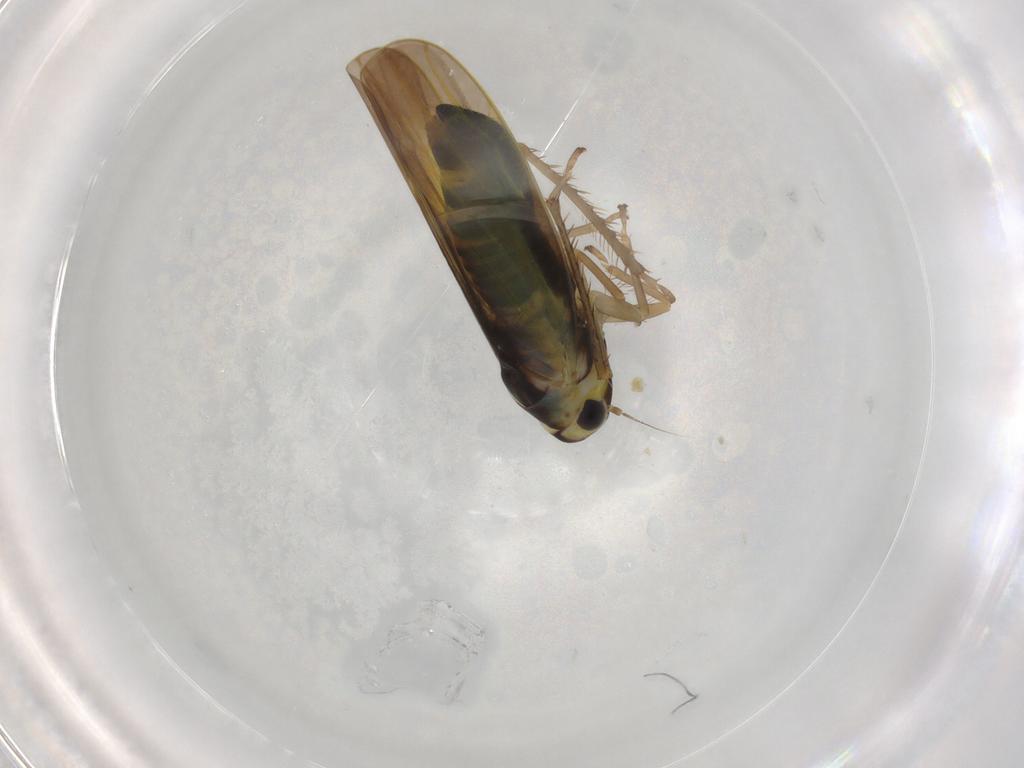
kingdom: Animalia
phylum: Arthropoda
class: Insecta
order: Hemiptera
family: Cicadellidae
